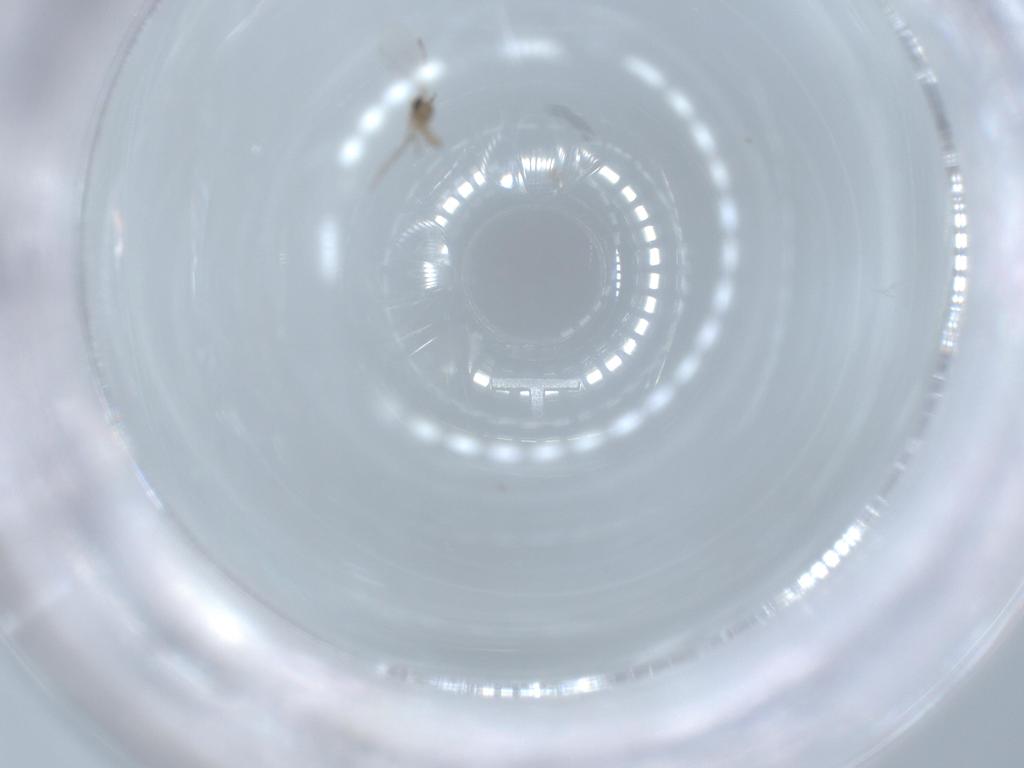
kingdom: Animalia
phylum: Arthropoda
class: Insecta
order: Diptera
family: Cecidomyiidae
